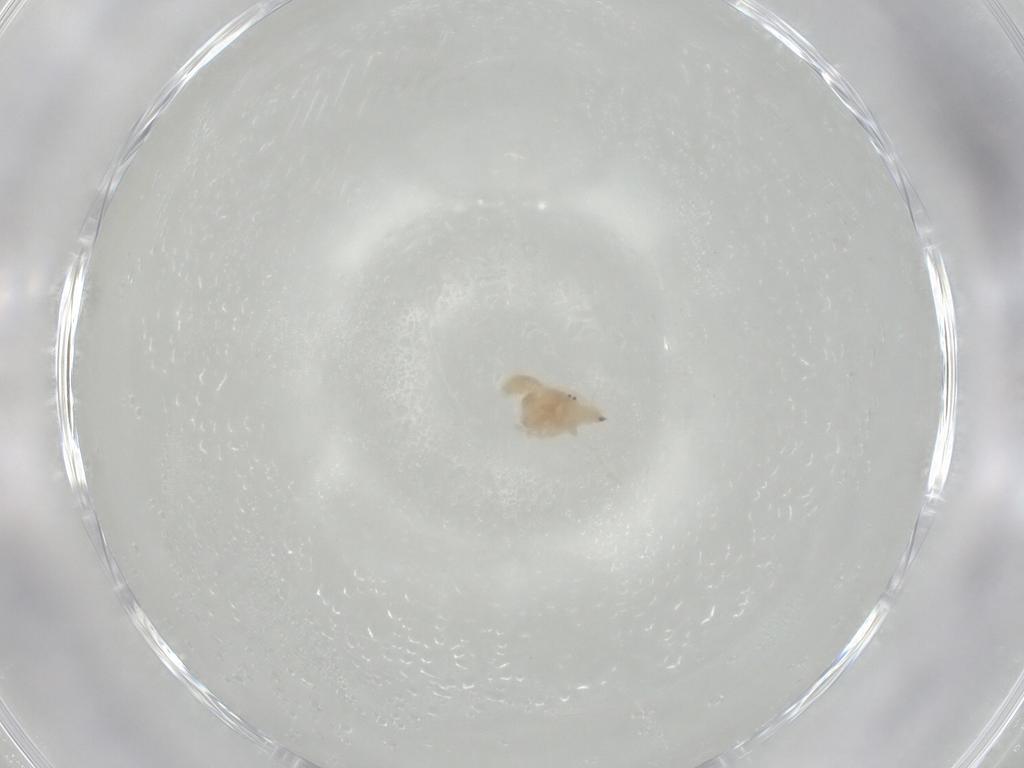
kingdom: Animalia
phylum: Arthropoda
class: Arachnida
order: Trombidiformes
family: Bdellidae
